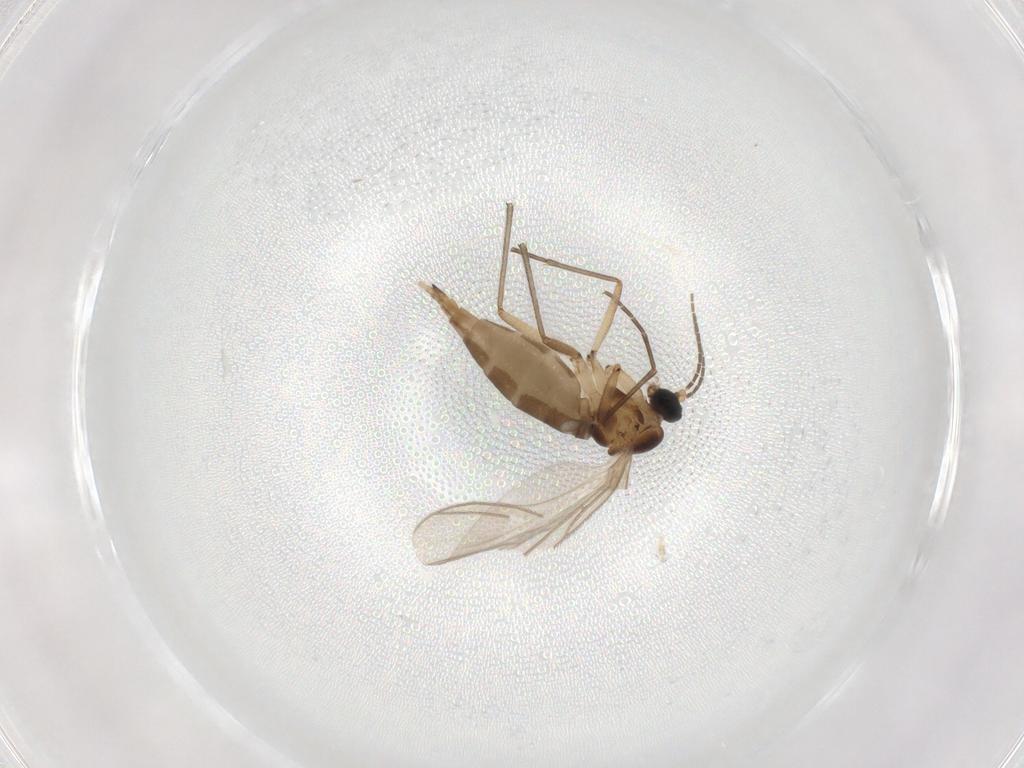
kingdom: Animalia
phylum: Arthropoda
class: Insecta
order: Diptera
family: Sciaridae
